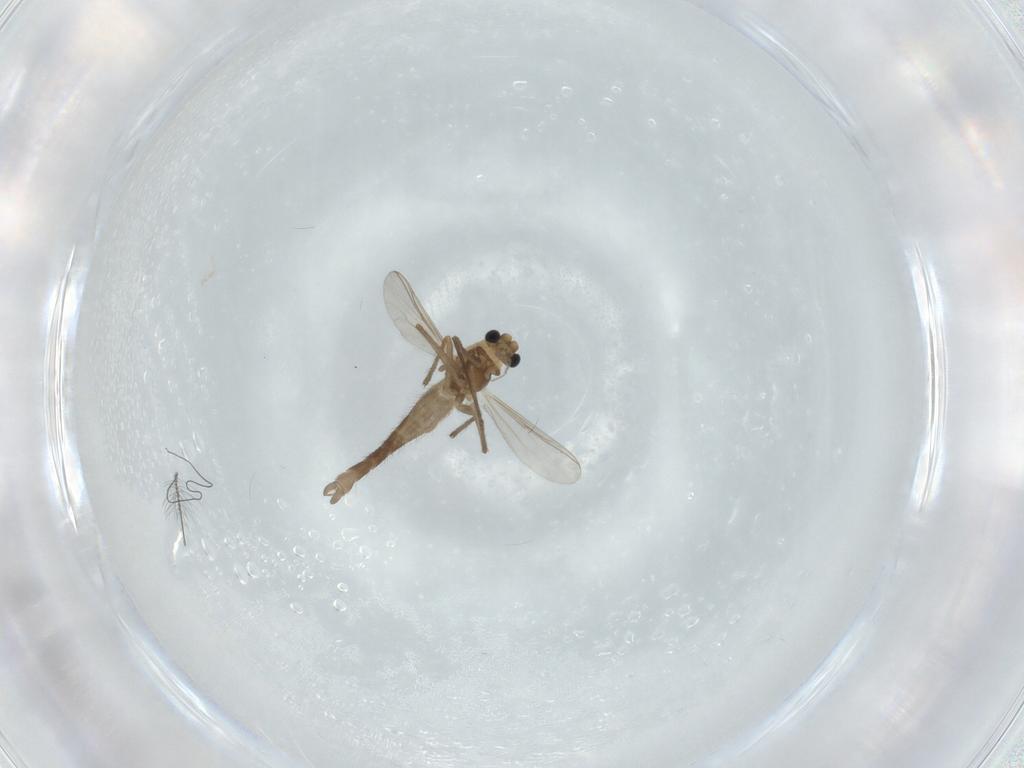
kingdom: Animalia
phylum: Arthropoda
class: Insecta
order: Diptera
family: Chironomidae
